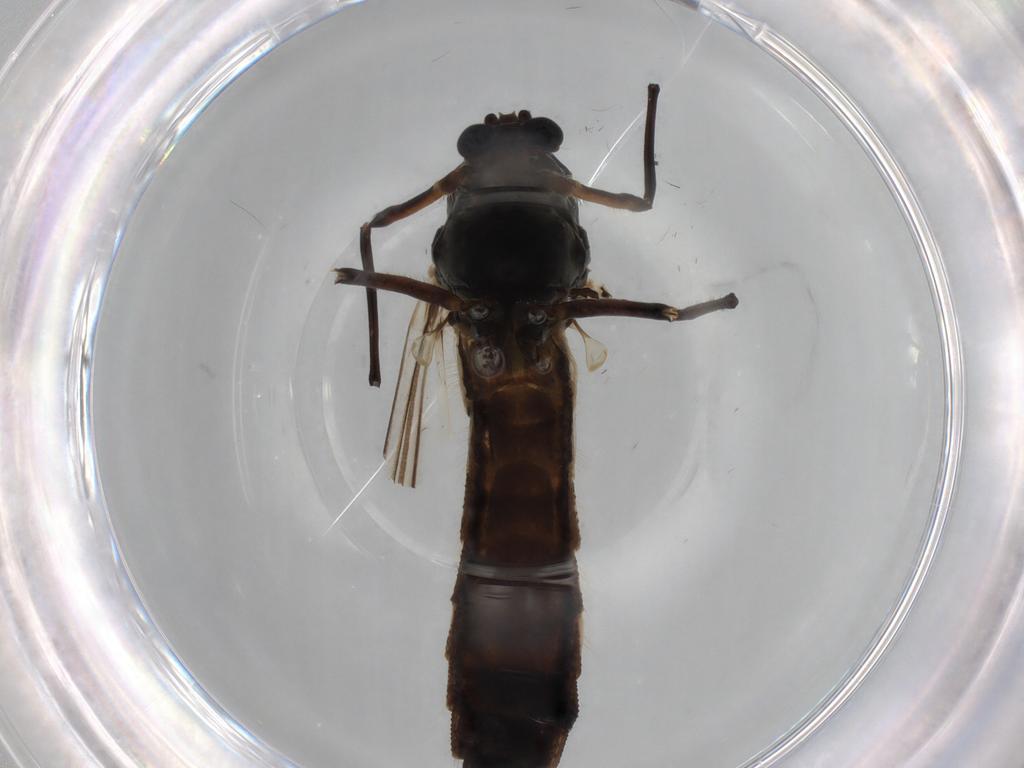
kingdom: Animalia
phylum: Arthropoda
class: Insecta
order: Diptera
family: Chironomidae
